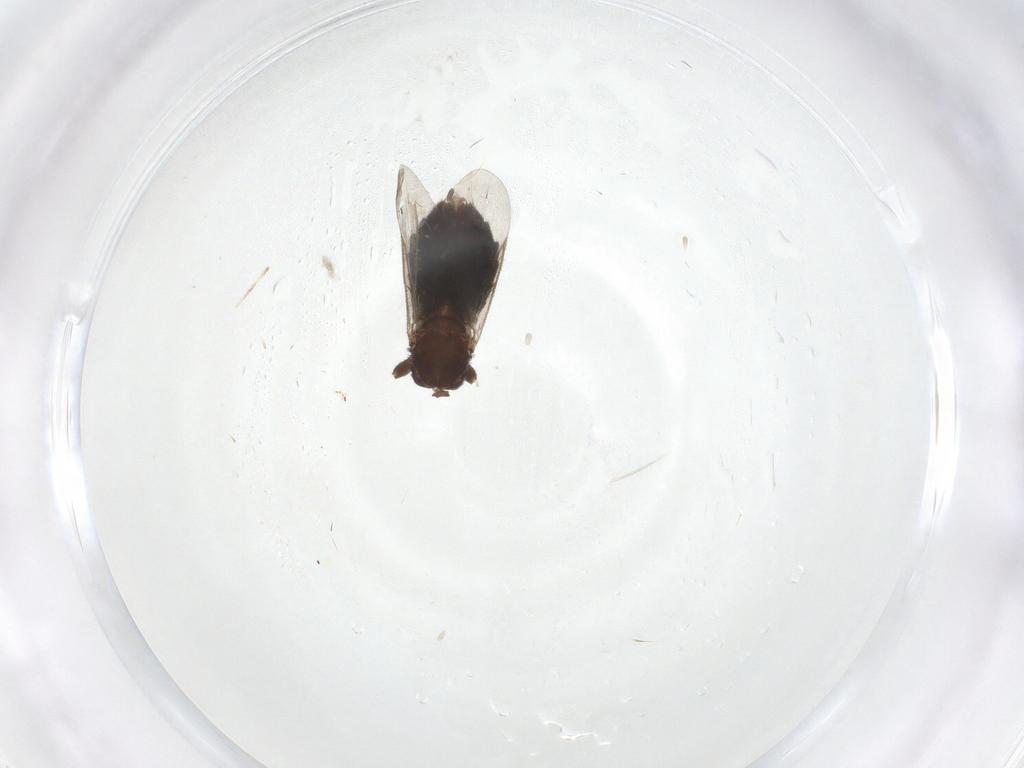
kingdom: Animalia
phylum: Arthropoda
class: Insecta
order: Diptera
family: Scatopsidae
